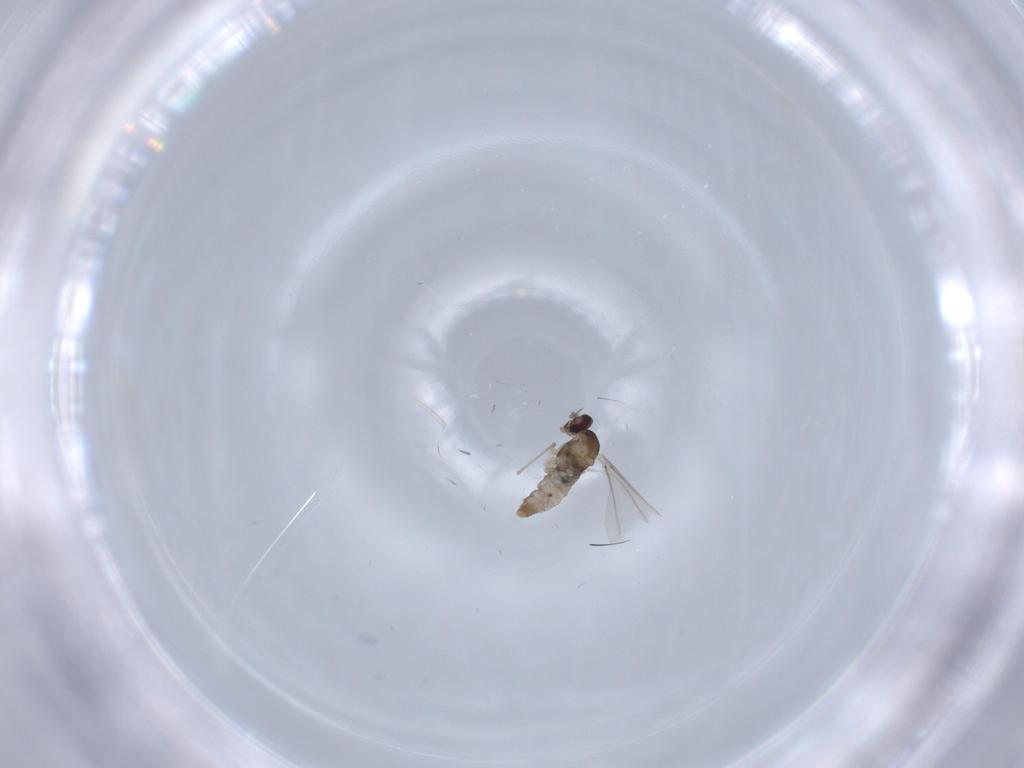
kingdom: Animalia
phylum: Arthropoda
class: Insecta
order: Diptera
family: Cecidomyiidae
